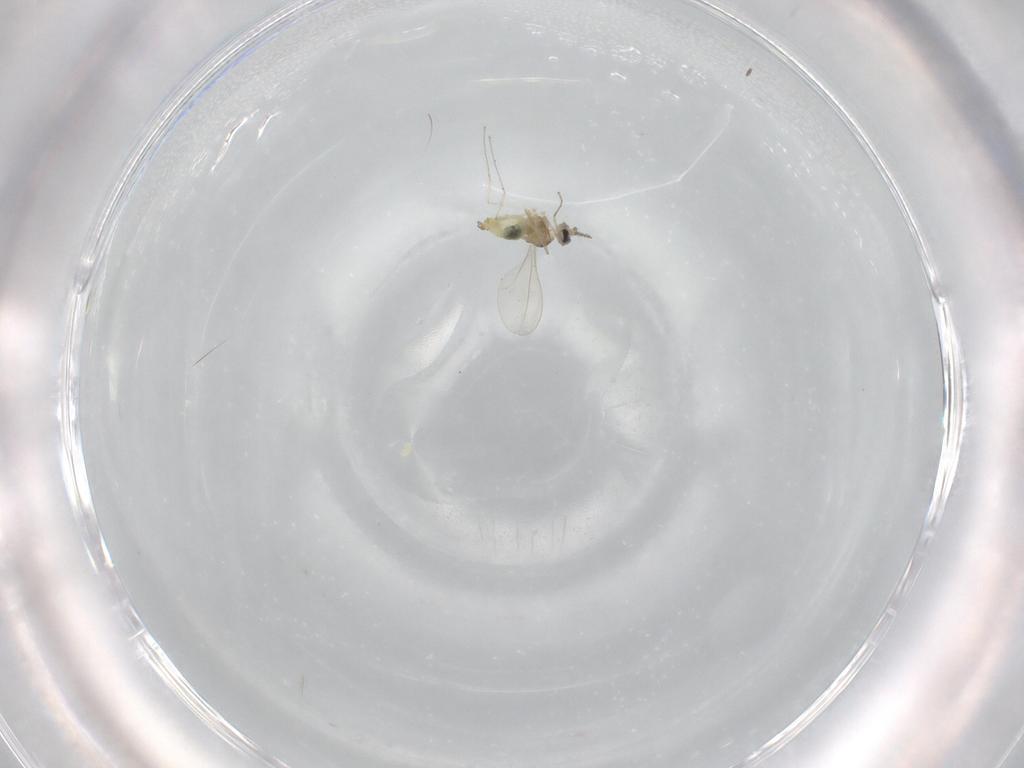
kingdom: Animalia
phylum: Arthropoda
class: Insecta
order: Diptera
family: Cecidomyiidae
